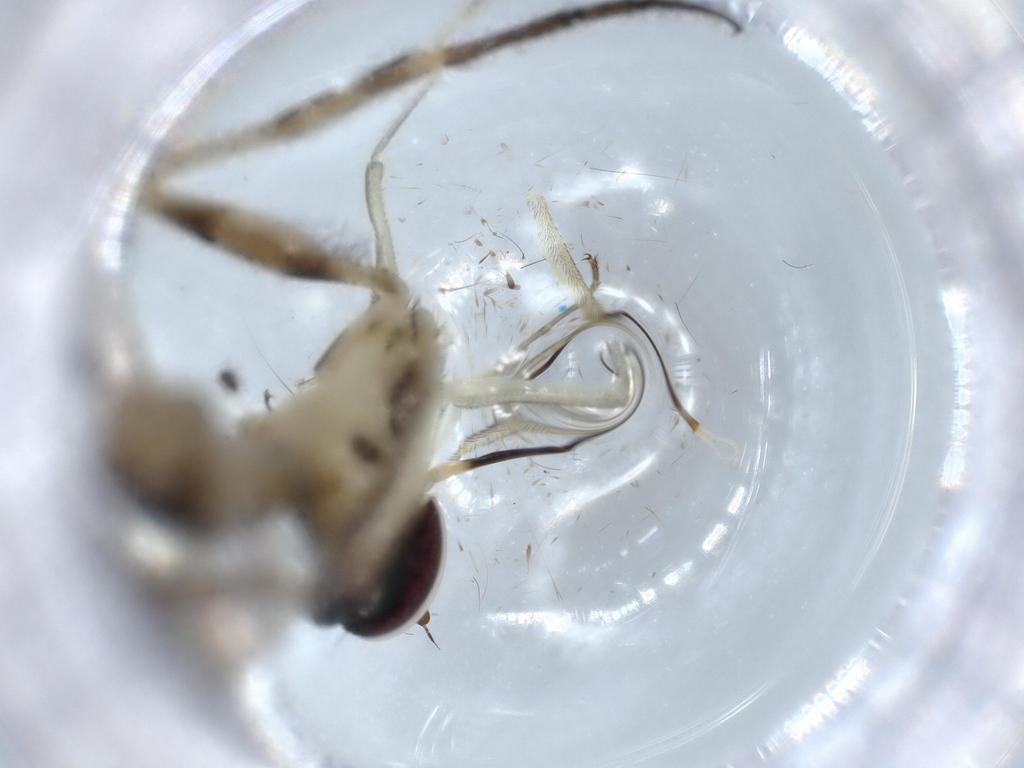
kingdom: Animalia
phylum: Arthropoda
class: Insecta
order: Diptera
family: Conopidae
